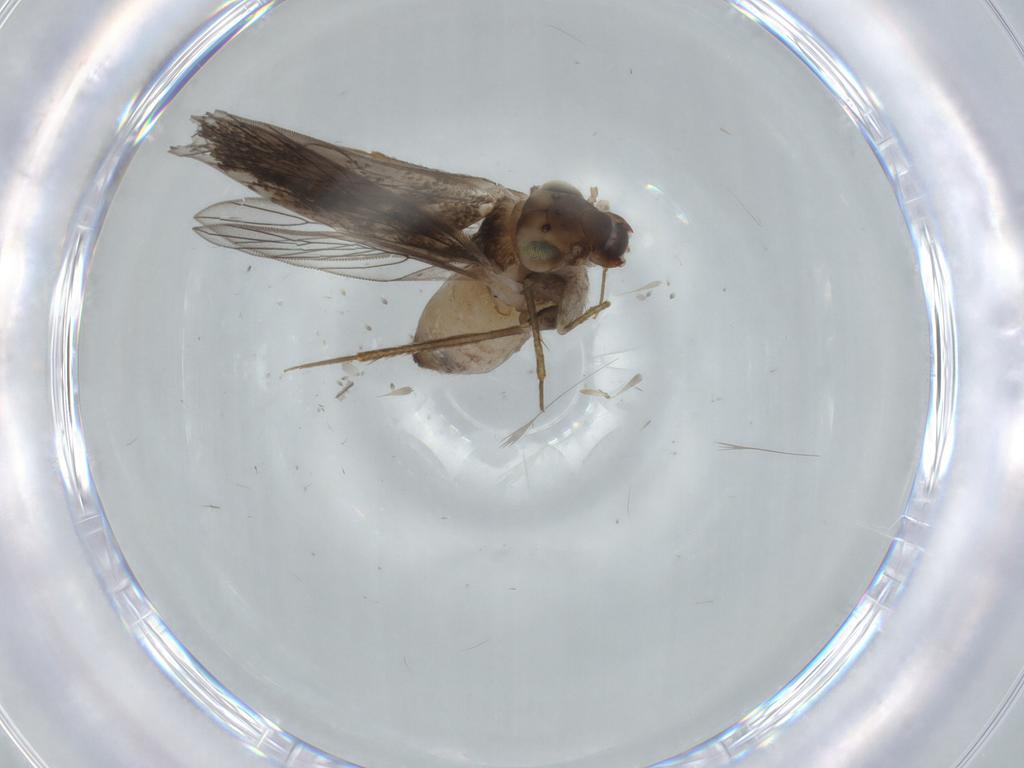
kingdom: Animalia
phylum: Arthropoda
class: Insecta
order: Psocodea
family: Lepidopsocidae
